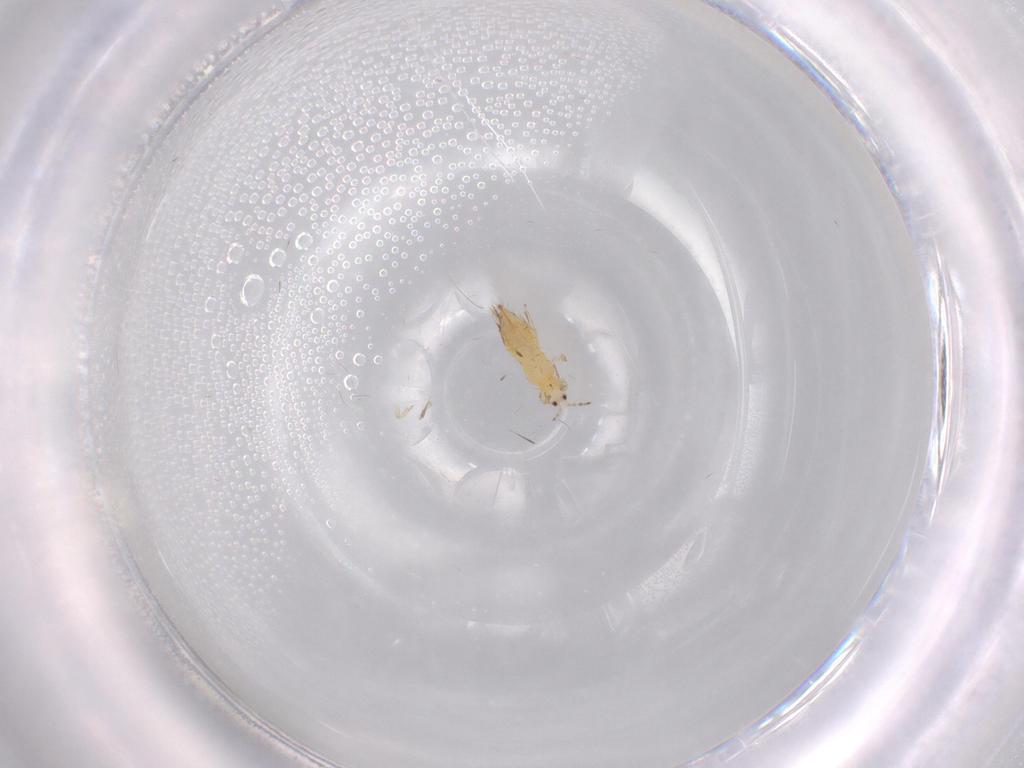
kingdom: Animalia
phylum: Arthropoda
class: Insecta
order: Thysanoptera
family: Thripidae
